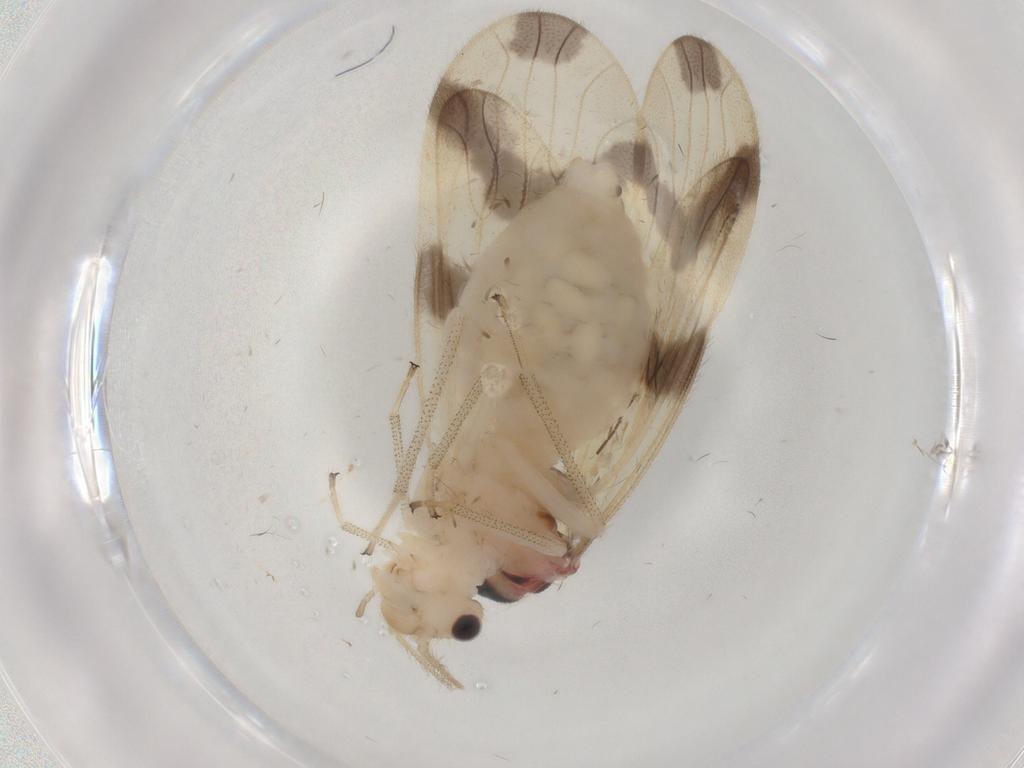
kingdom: Animalia
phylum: Arthropoda
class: Insecta
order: Psocodea
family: Amphipsocidae
